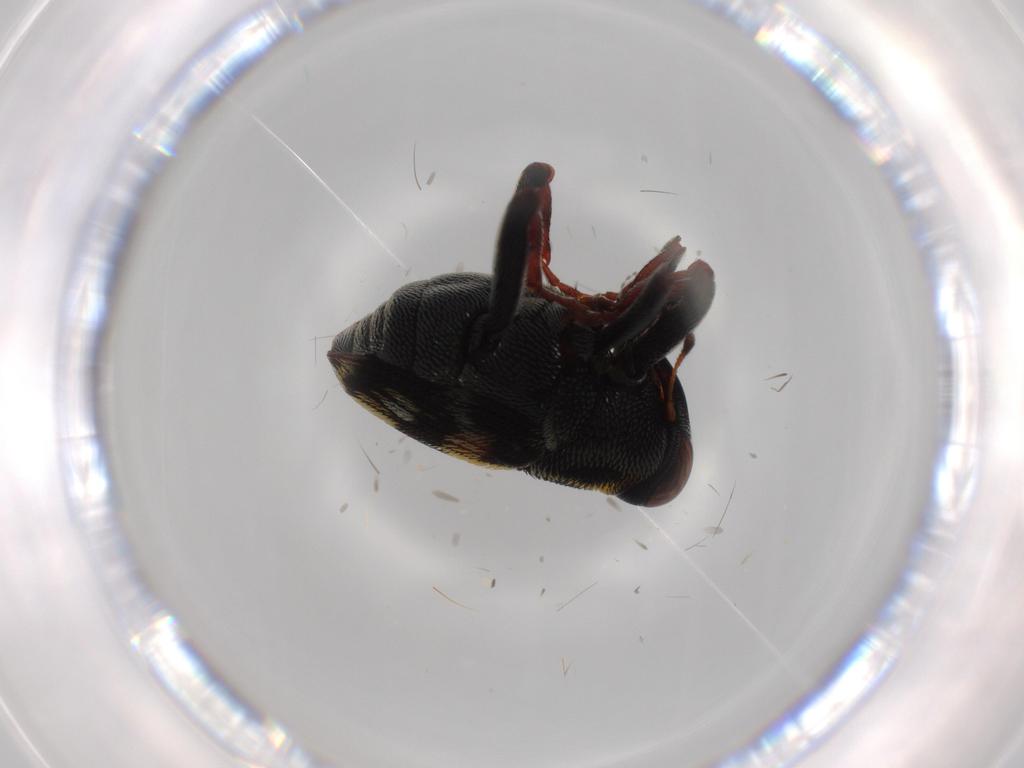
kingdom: Animalia
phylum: Arthropoda
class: Insecta
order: Coleoptera
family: Curculionidae
